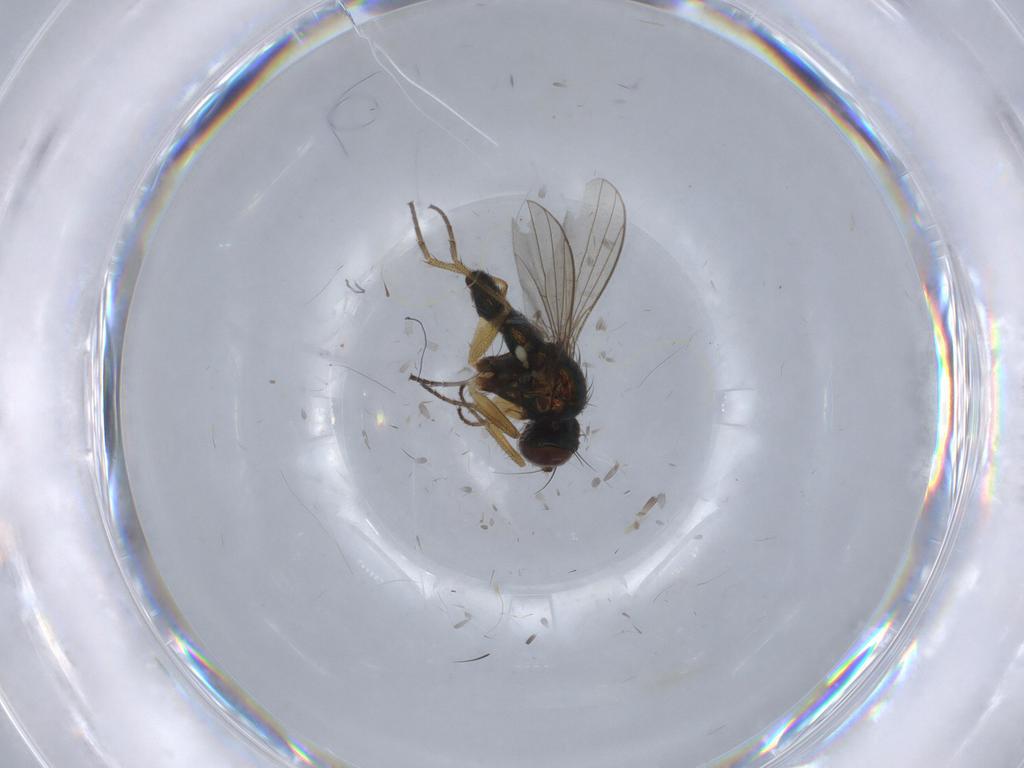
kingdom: Animalia
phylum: Arthropoda
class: Insecta
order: Diptera
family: Dolichopodidae
